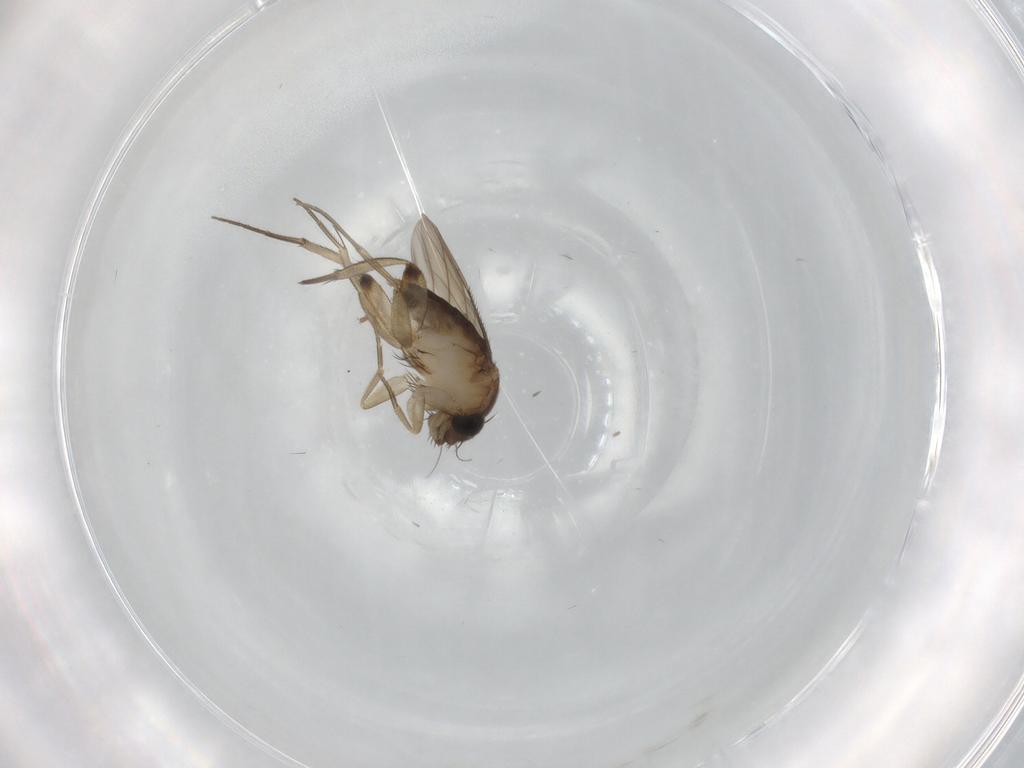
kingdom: Animalia
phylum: Arthropoda
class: Insecta
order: Diptera
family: Phoridae
